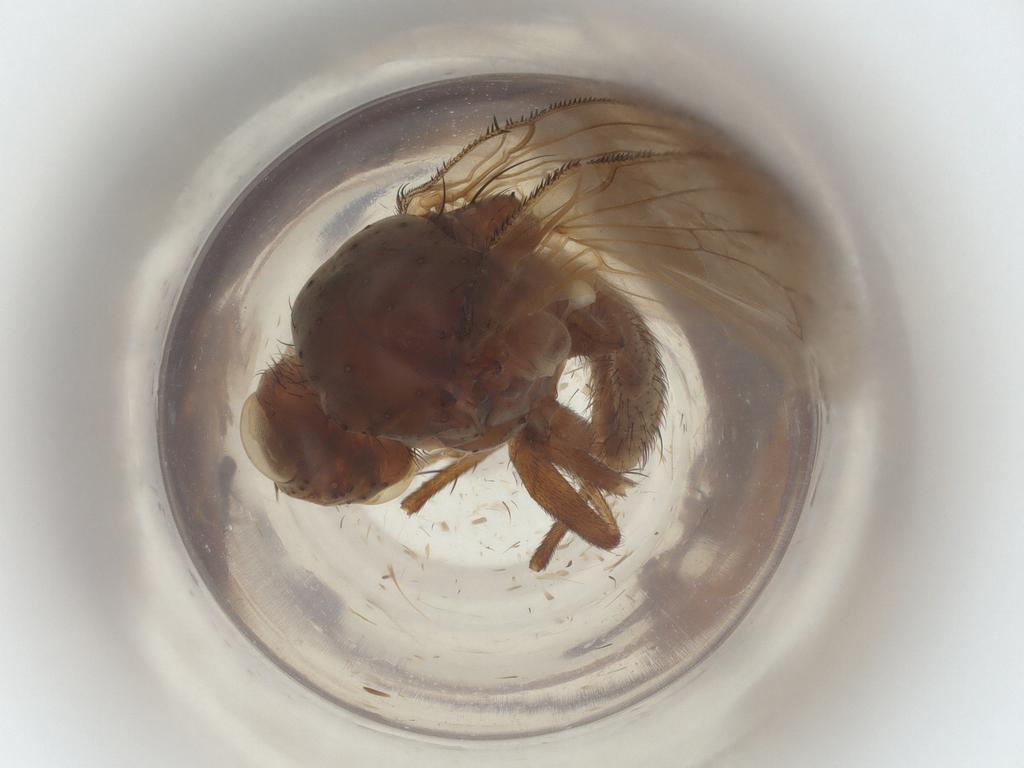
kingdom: Animalia
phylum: Arthropoda
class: Insecta
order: Diptera
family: Anthomyiidae
